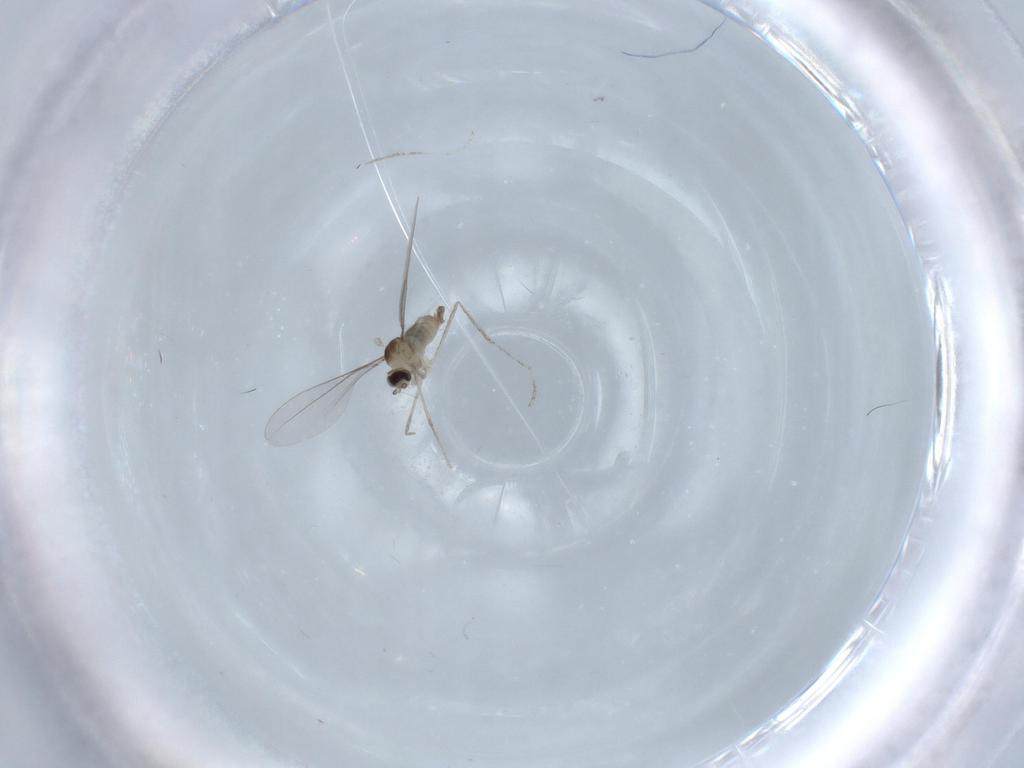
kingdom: Animalia
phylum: Arthropoda
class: Insecta
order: Diptera
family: Cecidomyiidae
